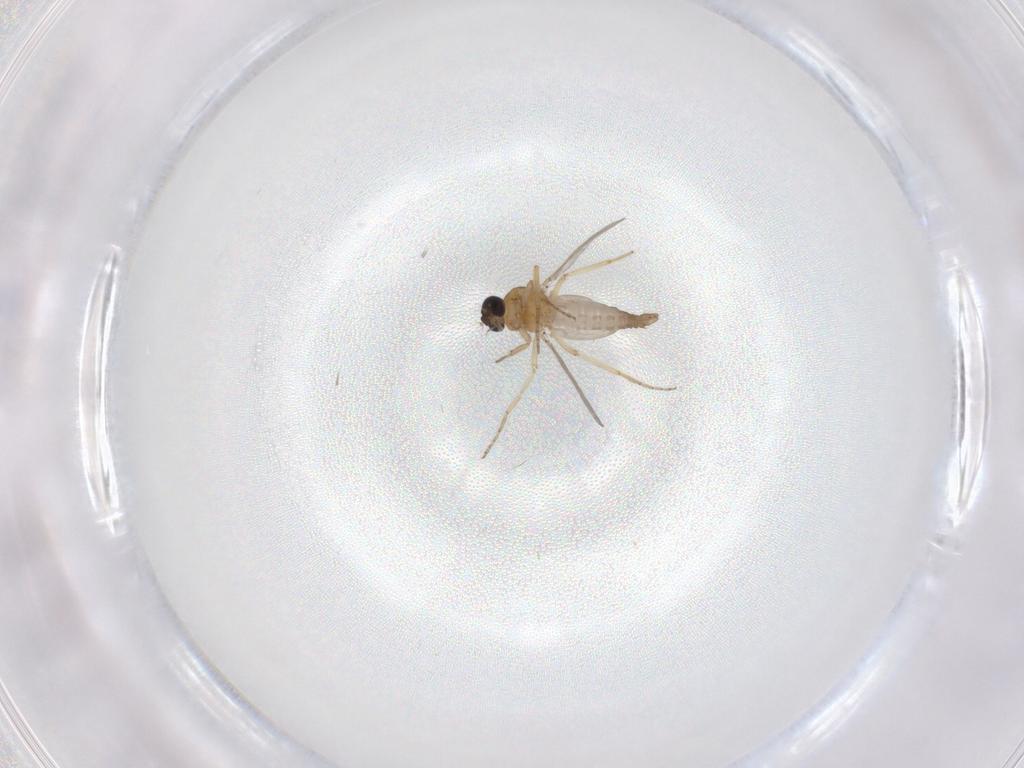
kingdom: Animalia
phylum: Arthropoda
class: Insecta
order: Diptera
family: Ceratopogonidae
